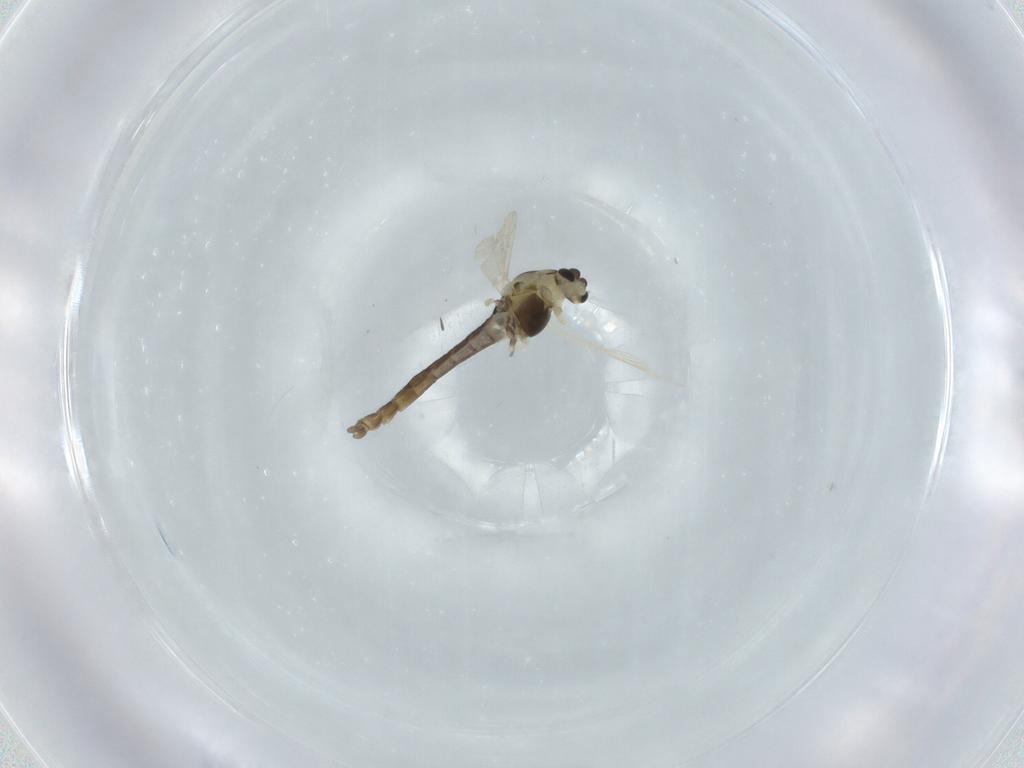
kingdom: Animalia
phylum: Arthropoda
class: Insecta
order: Diptera
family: Chironomidae
